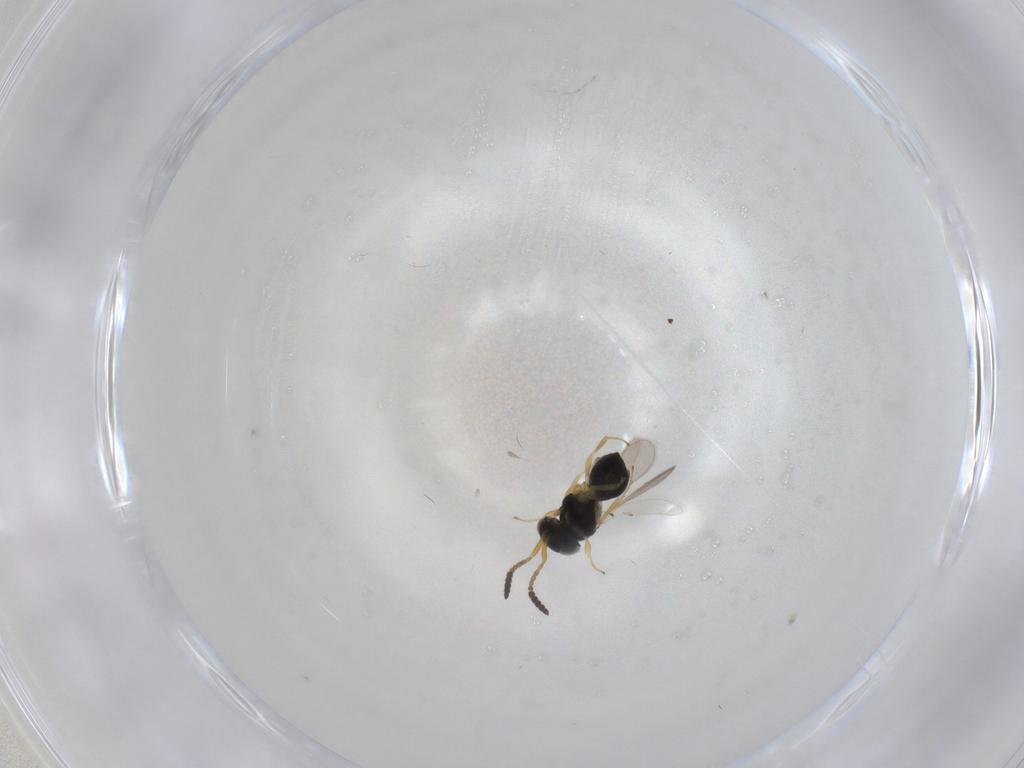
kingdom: Animalia
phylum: Arthropoda
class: Insecta
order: Hymenoptera
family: Scelionidae
